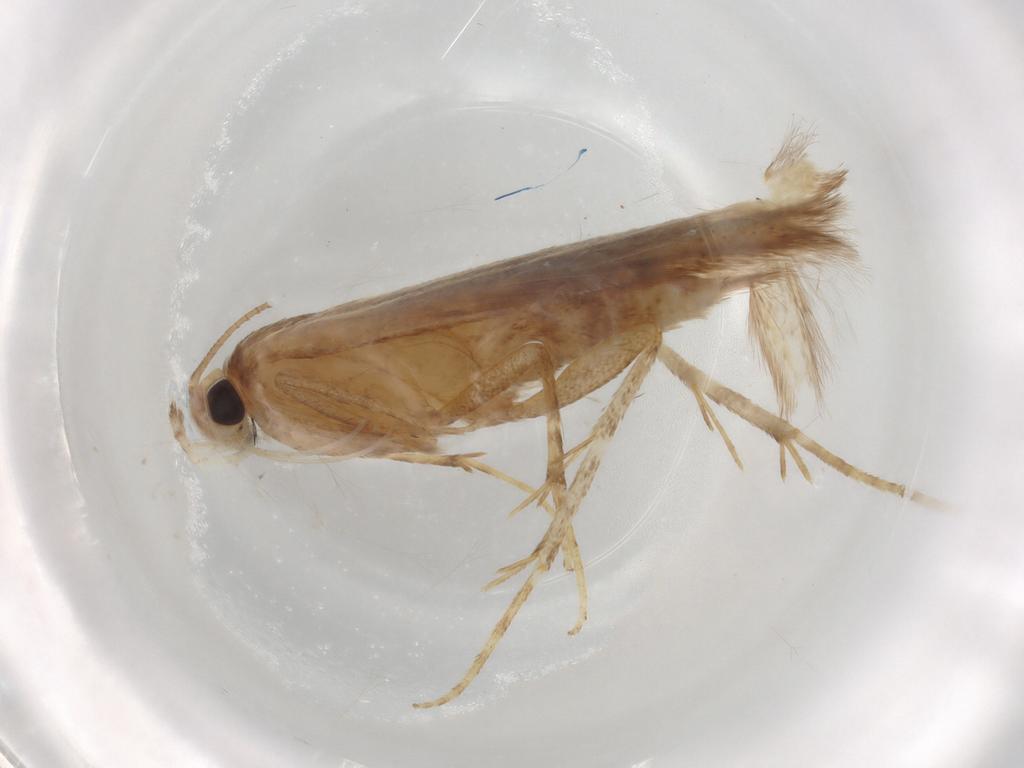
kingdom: Animalia
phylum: Arthropoda
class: Insecta
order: Lepidoptera
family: Batrachedridae
